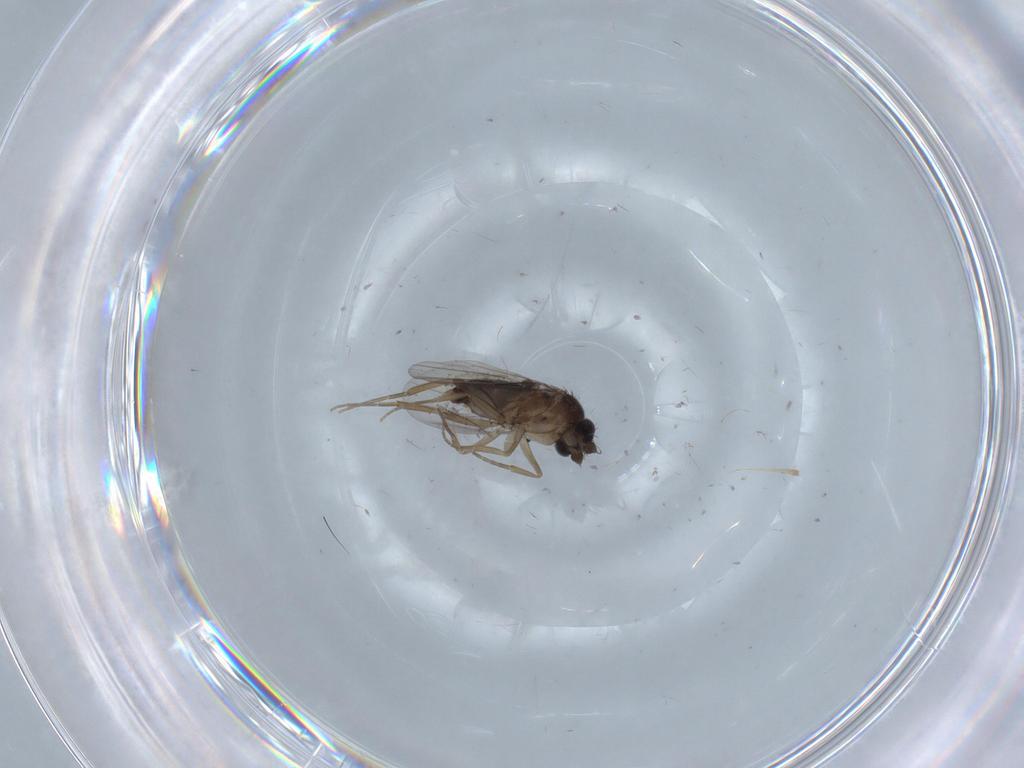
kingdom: Animalia
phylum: Arthropoda
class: Insecta
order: Diptera
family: Phoridae
